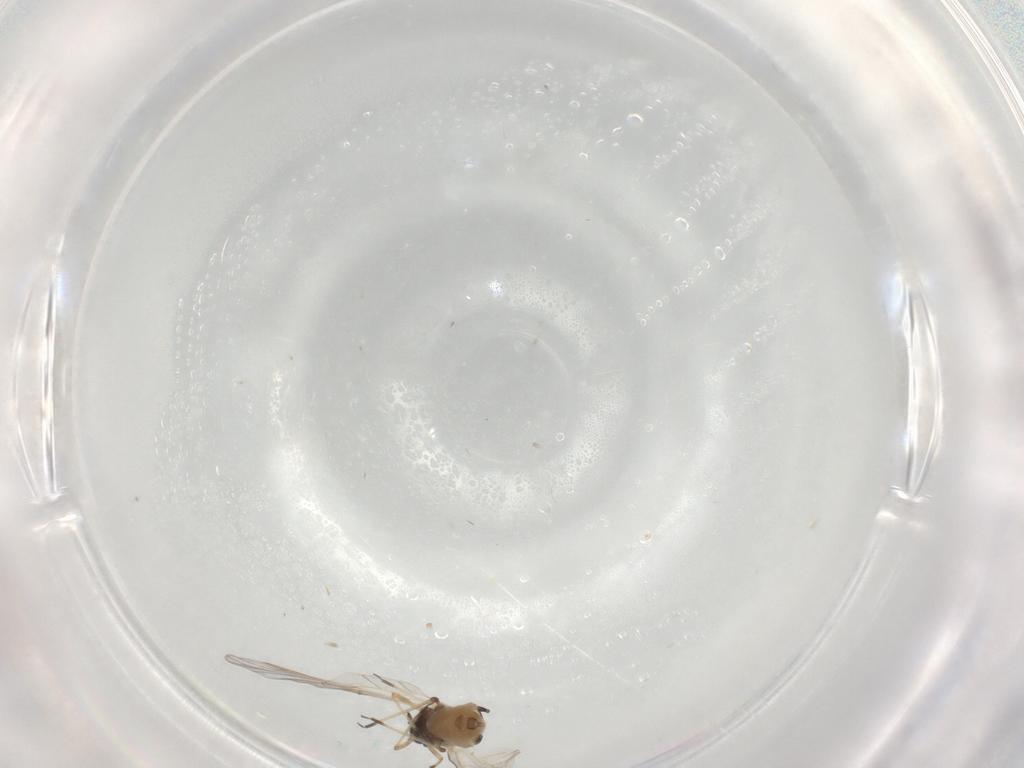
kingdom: Animalia
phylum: Arthropoda
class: Insecta
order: Hemiptera
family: Aphididae
